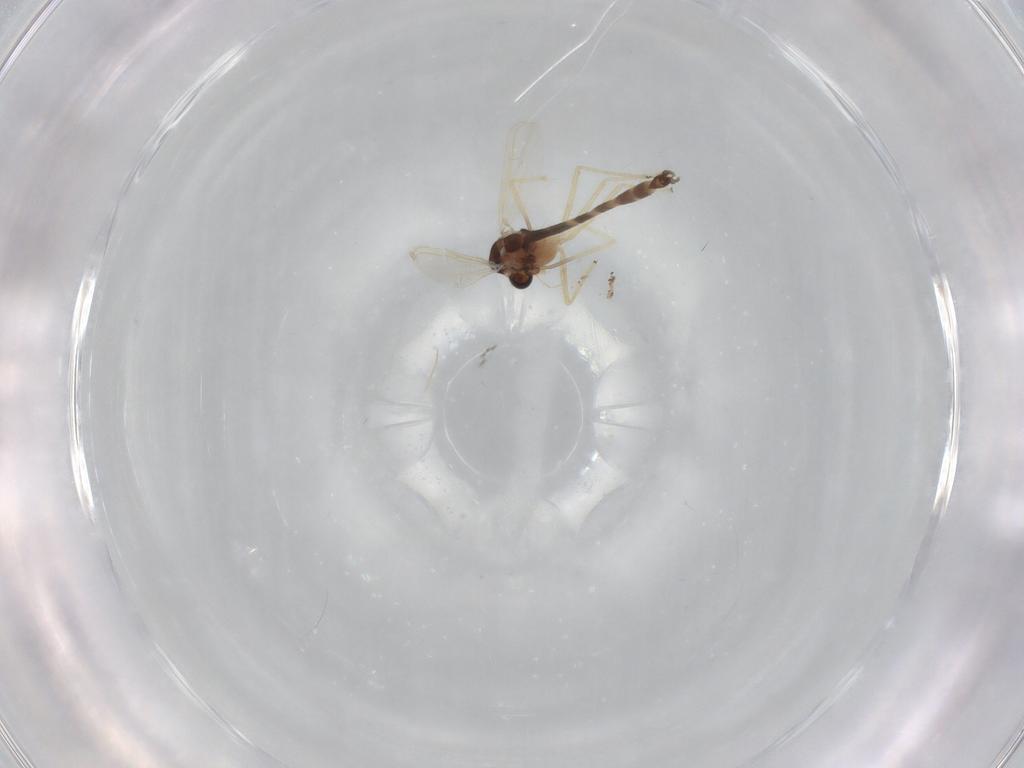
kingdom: Animalia
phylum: Arthropoda
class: Insecta
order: Diptera
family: Chironomidae
